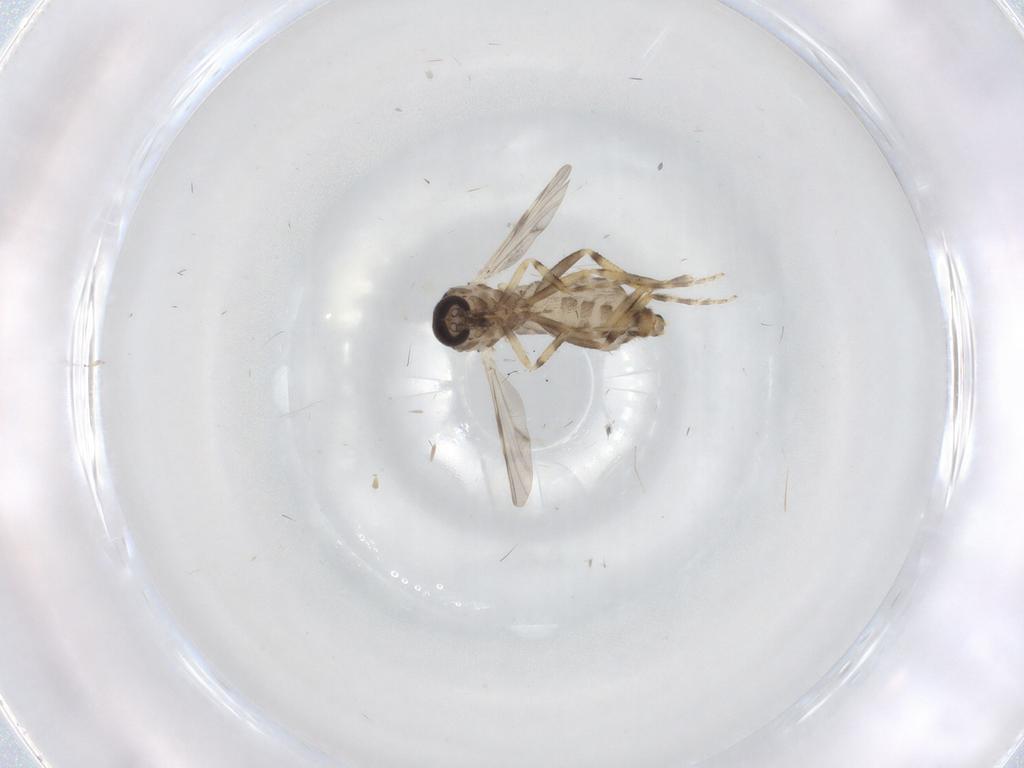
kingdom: Animalia
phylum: Arthropoda
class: Insecta
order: Diptera
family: Ceratopogonidae
